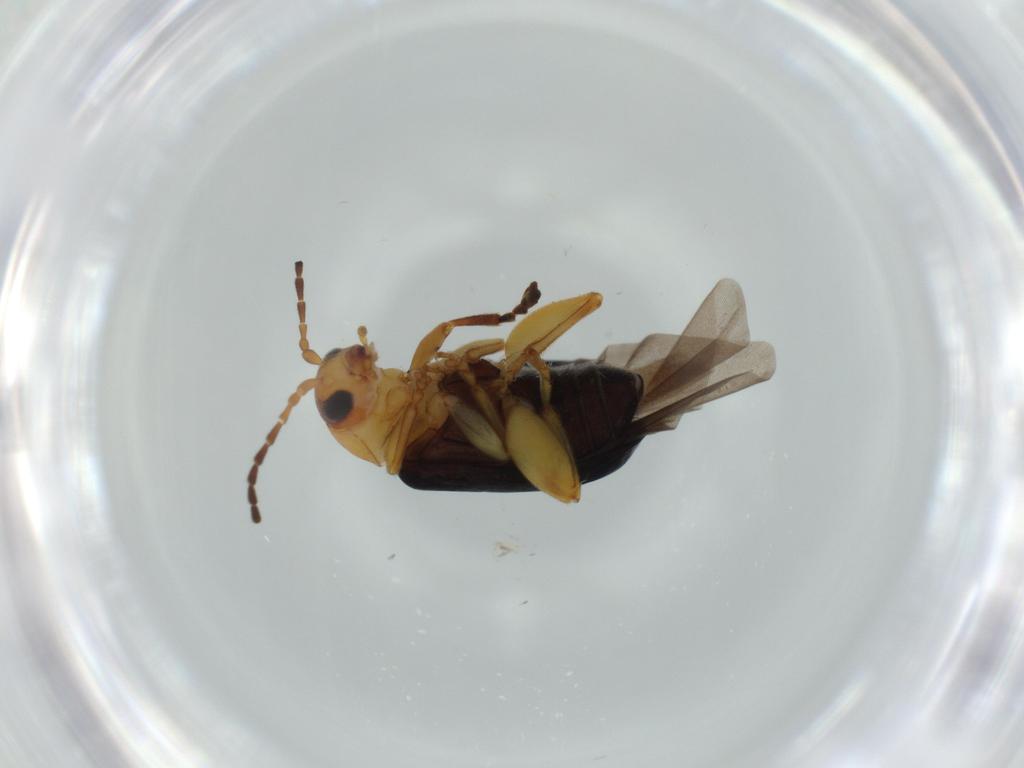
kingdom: Animalia
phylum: Arthropoda
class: Insecta
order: Coleoptera
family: Chrysomelidae
